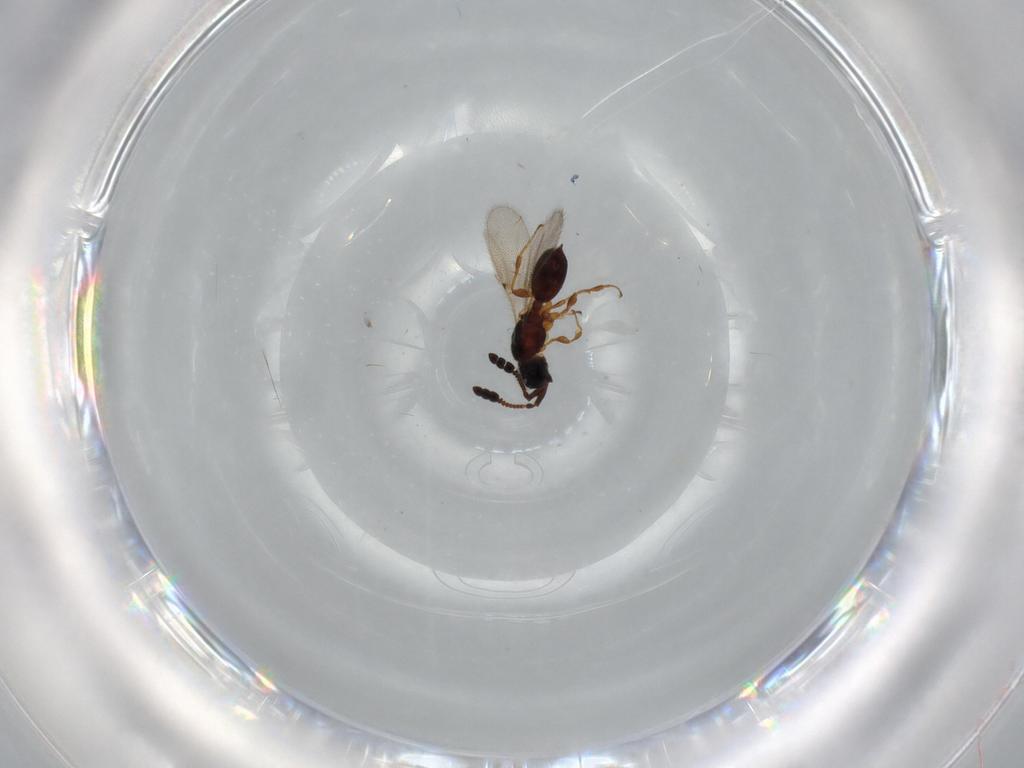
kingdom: Animalia
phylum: Arthropoda
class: Insecta
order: Hymenoptera
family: Diapriidae
